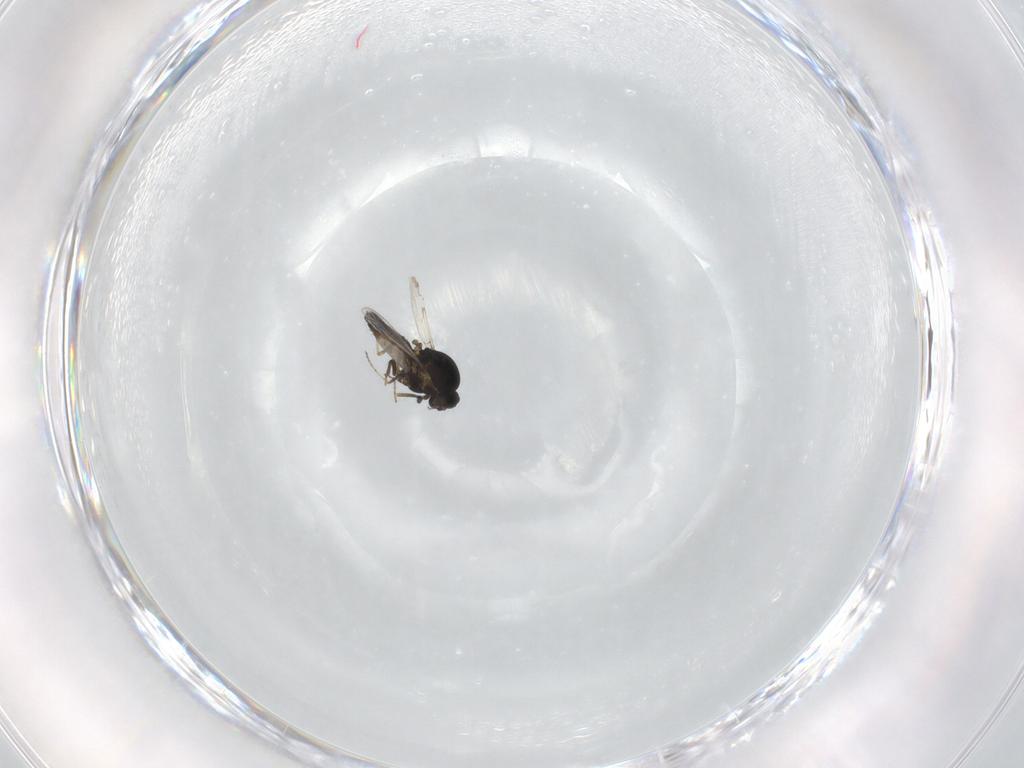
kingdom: Animalia
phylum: Arthropoda
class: Insecta
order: Diptera
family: Ceratopogonidae
